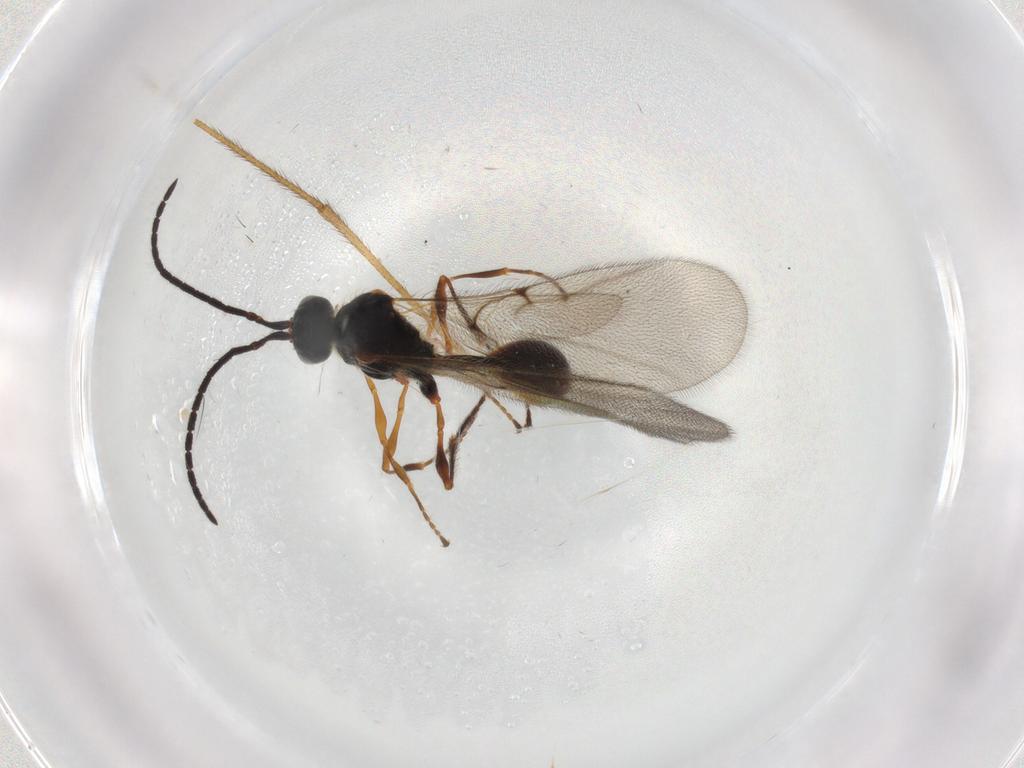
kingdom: Animalia
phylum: Arthropoda
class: Insecta
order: Hymenoptera
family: Diapriidae
